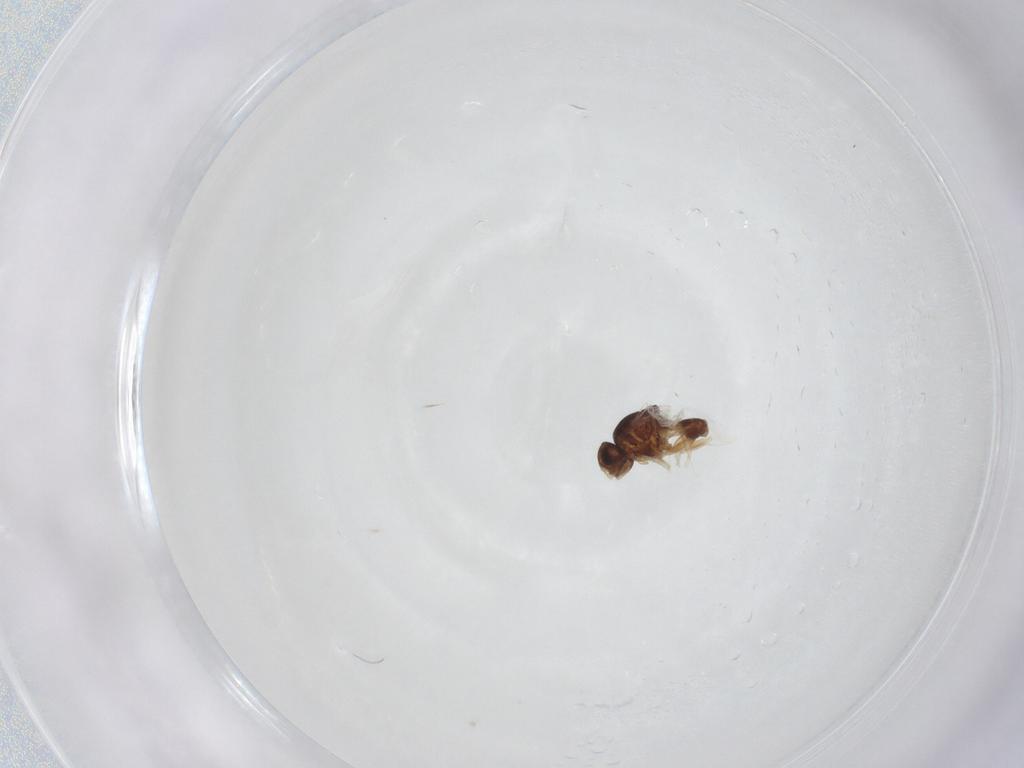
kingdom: Animalia
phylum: Arthropoda
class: Insecta
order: Diptera
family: Chloropidae
